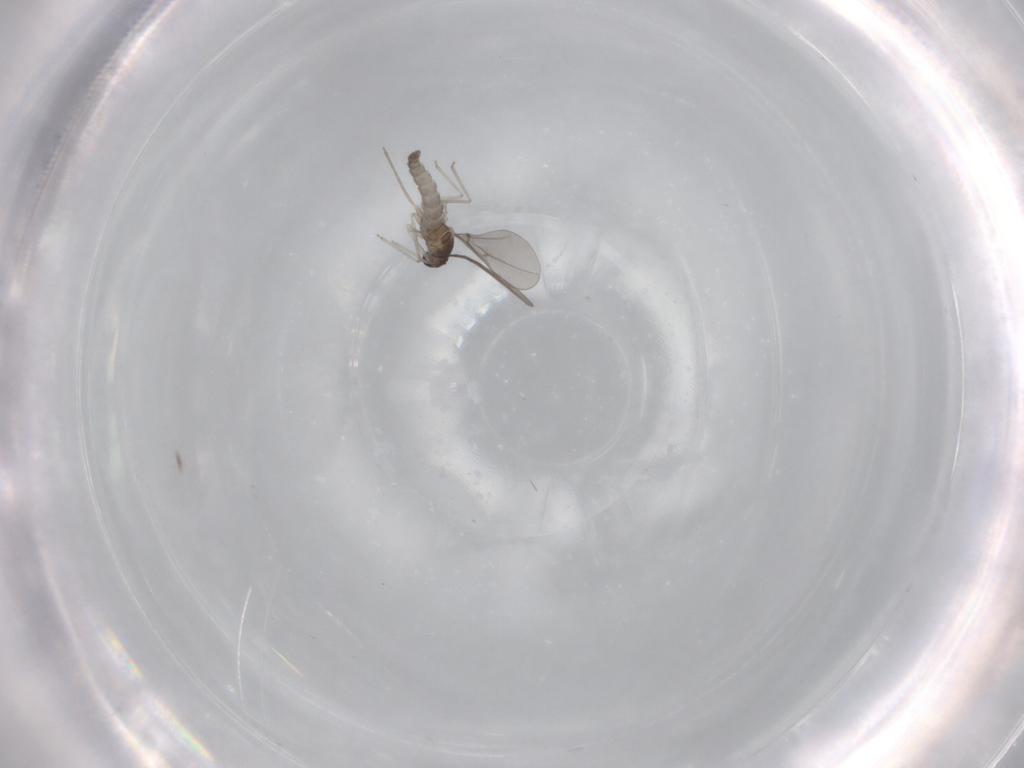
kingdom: Animalia
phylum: Arthropoda
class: Insecta
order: Diptera
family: Cecidomyiidae
